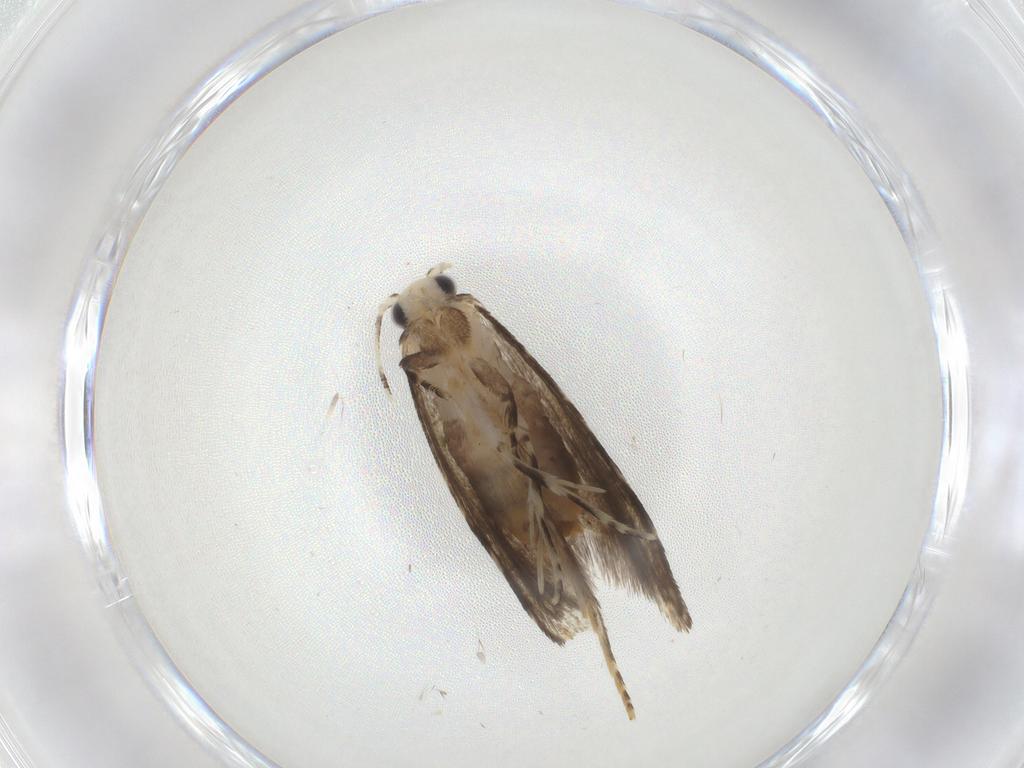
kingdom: Animalia
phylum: Arthropoda
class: Insecta
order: Lepidoptera
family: Tineidae
